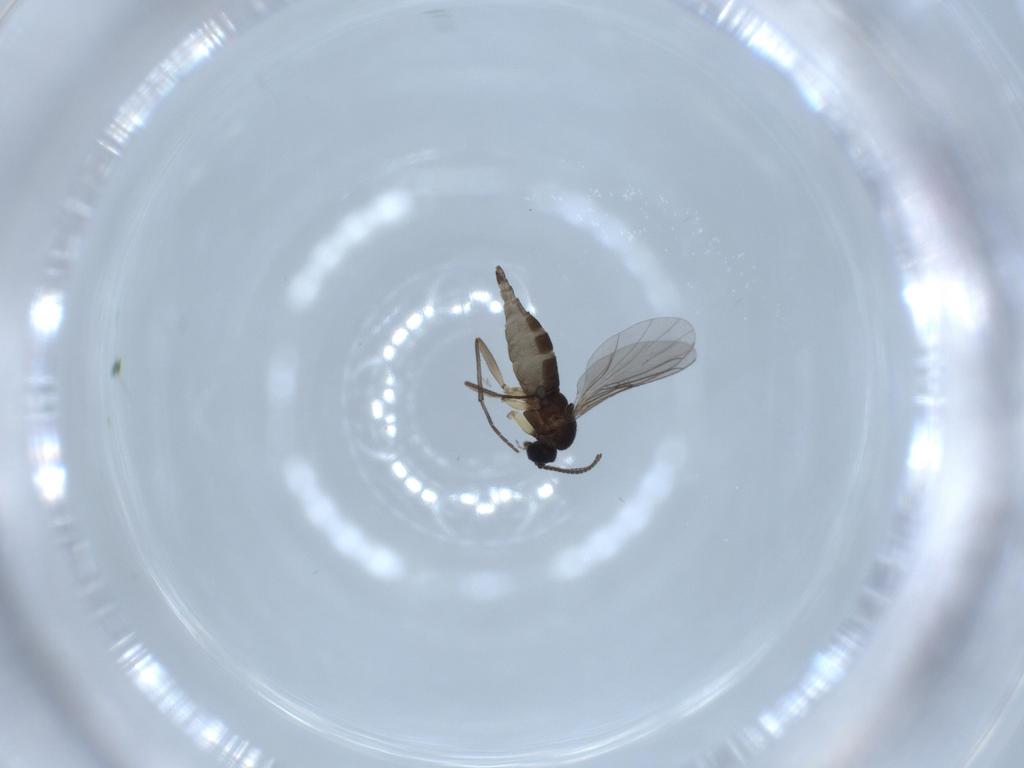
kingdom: Animalia
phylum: Arthropoda
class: Insecta
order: Diptera
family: Sciaridae
